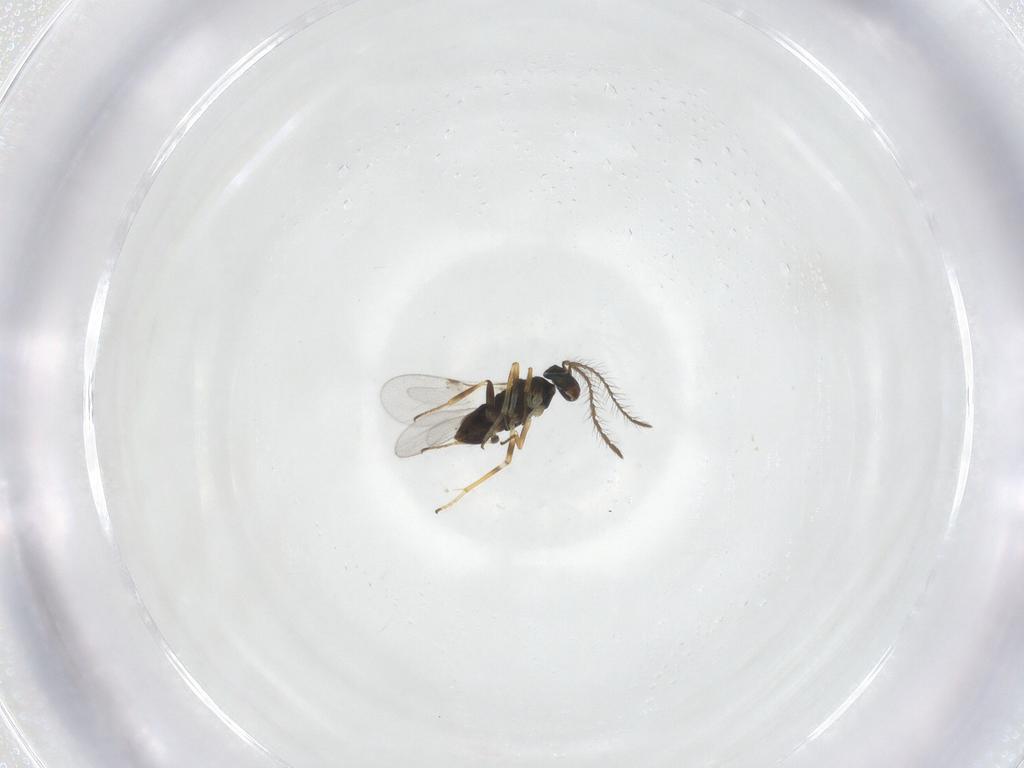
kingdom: Animalia
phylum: Arthropoda
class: Insecta
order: Hymenoptera
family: Encyrtidae
